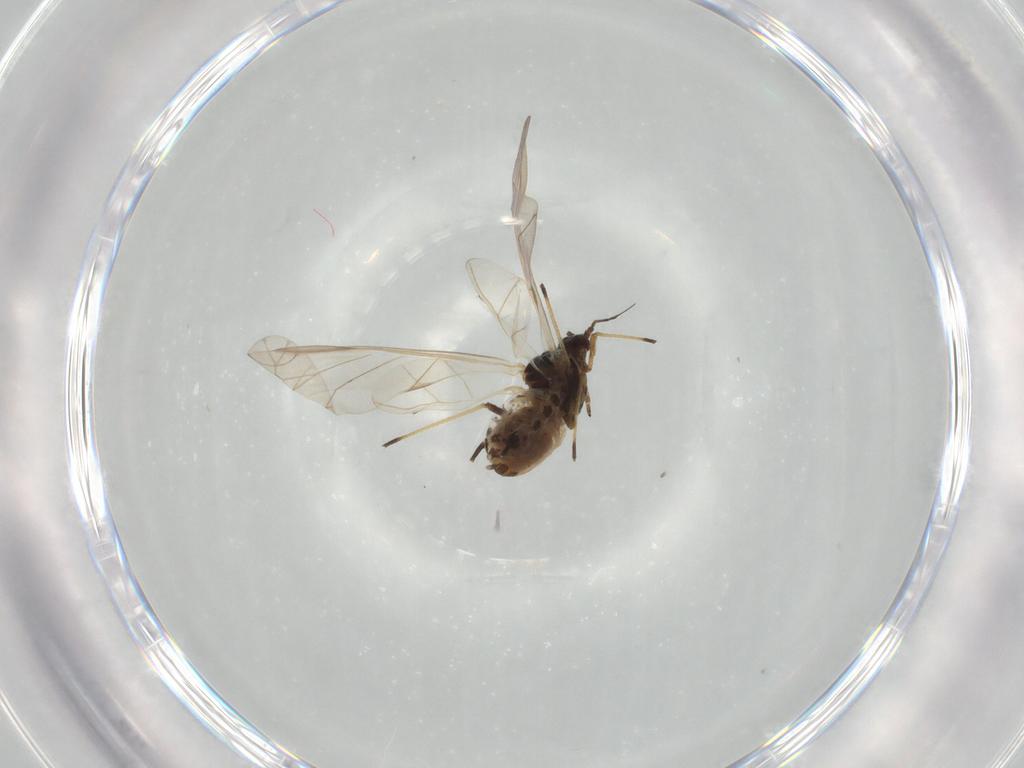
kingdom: Animalia
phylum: Arthropoda
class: Insecta
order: Hemiptera
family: Aphididae
